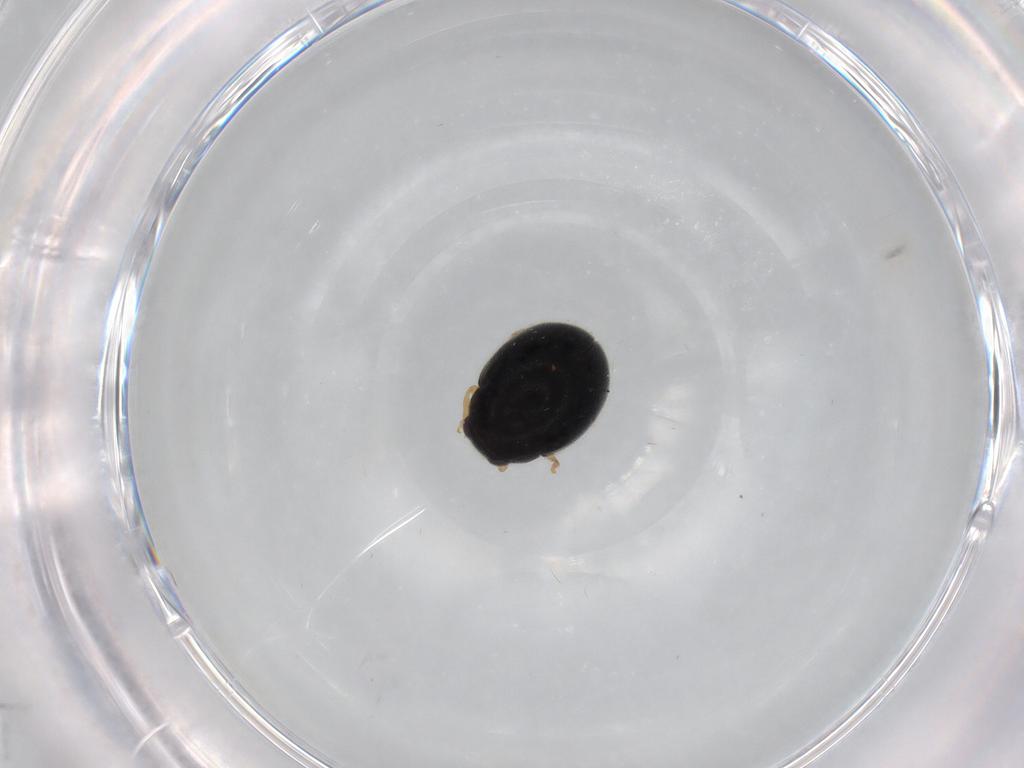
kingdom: Animalia
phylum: Arthropoda
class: Insecta
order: Coleoptera
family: Coccinellidae
